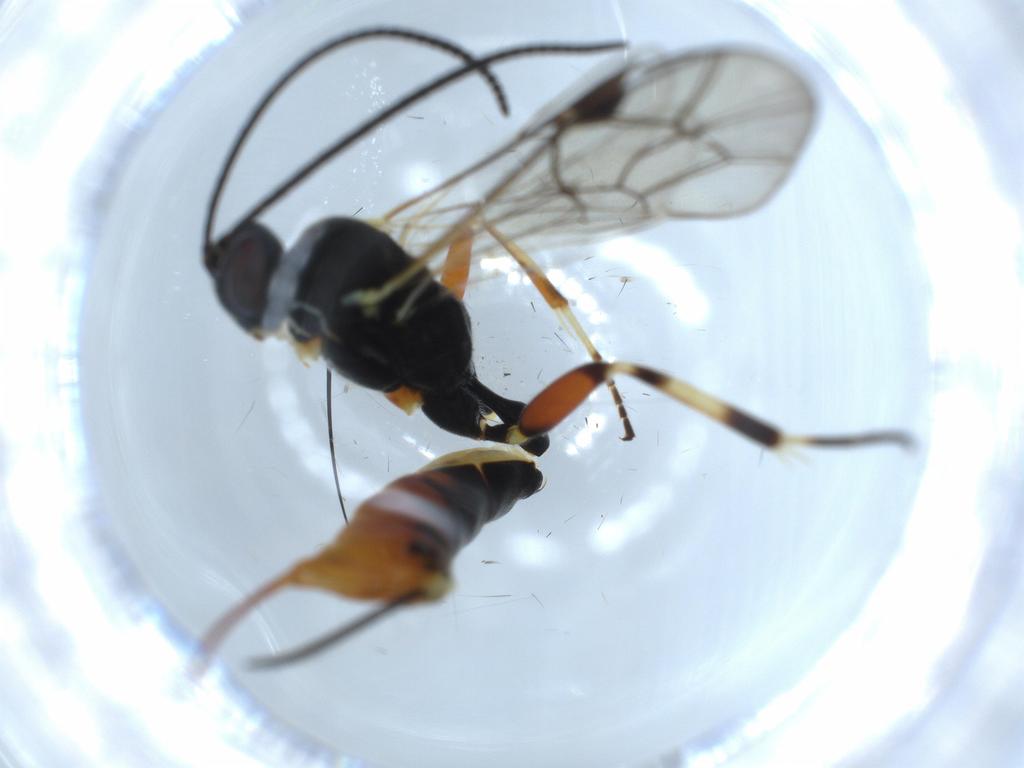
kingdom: Animalia
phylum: Arthropoda
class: Insecta
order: Hymenoptera
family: Ichneumonidae
